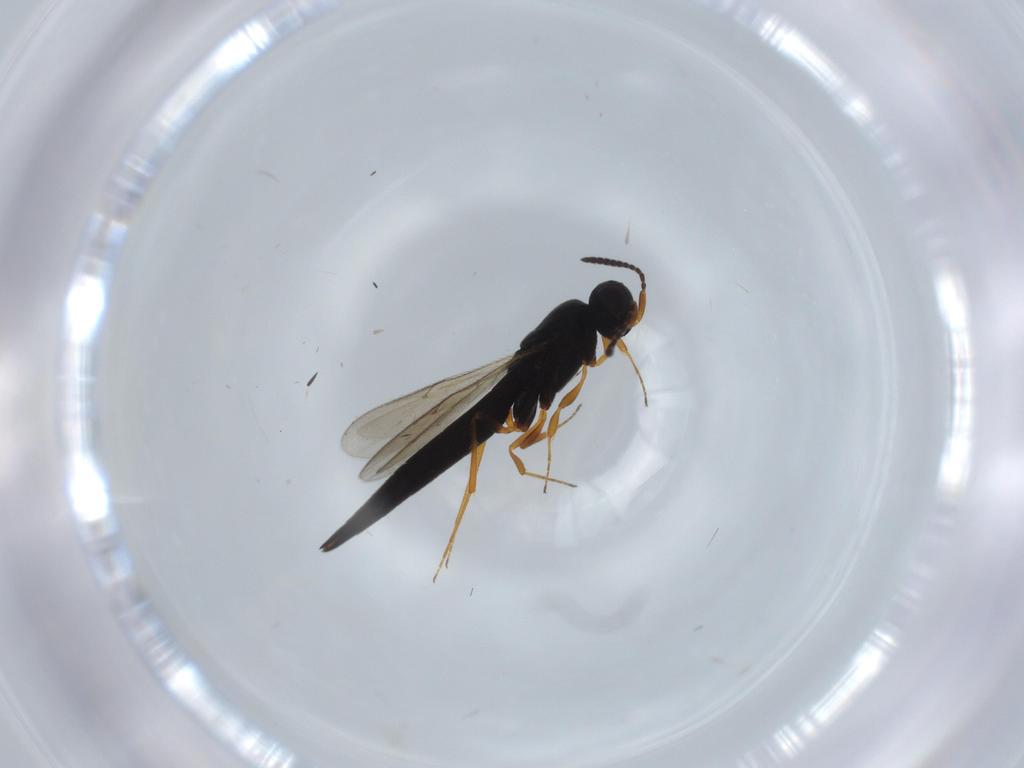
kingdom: Animalia
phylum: Arthropoda
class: Insecta
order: Hymenoptera
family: Scelionidae
